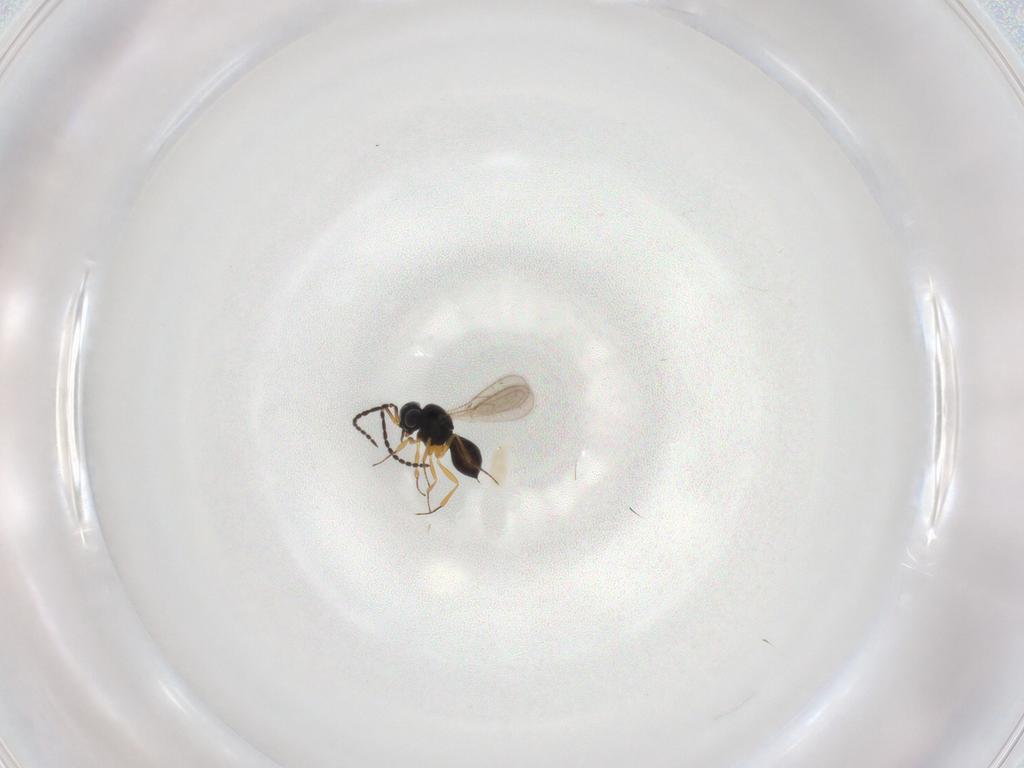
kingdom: Animalia
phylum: Arthropoda
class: Insecta
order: Hymenoptera
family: Scelionidae
